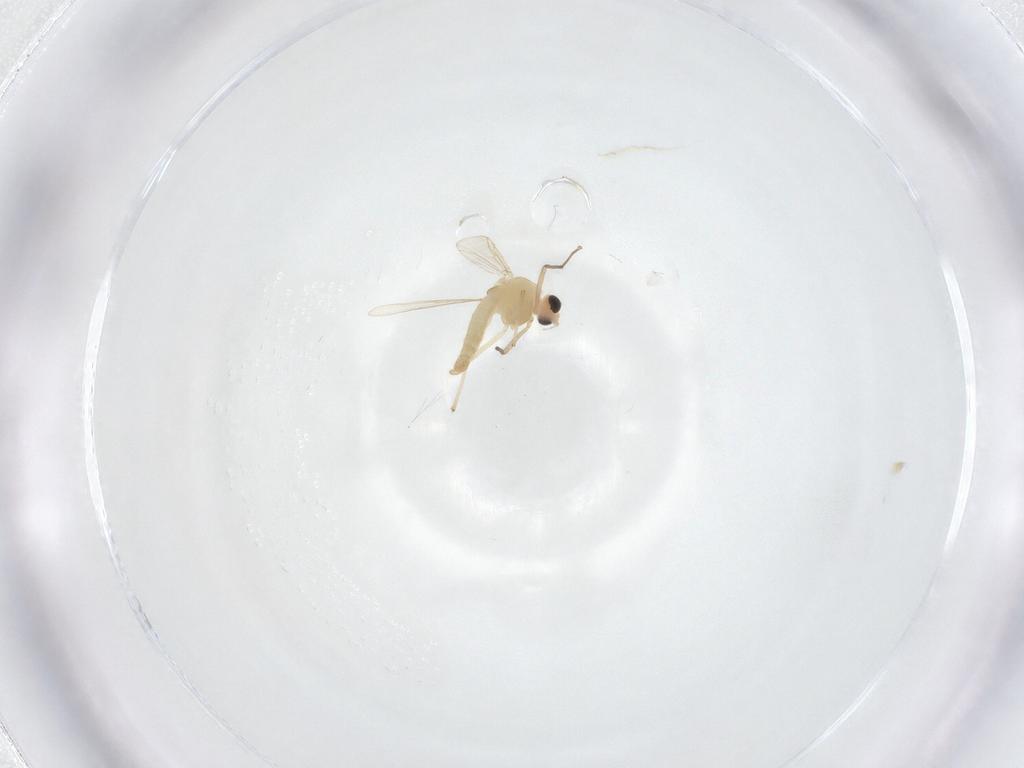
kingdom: Animalia
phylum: Arthropoda
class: Insecta
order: Diptera
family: Chironomidae
